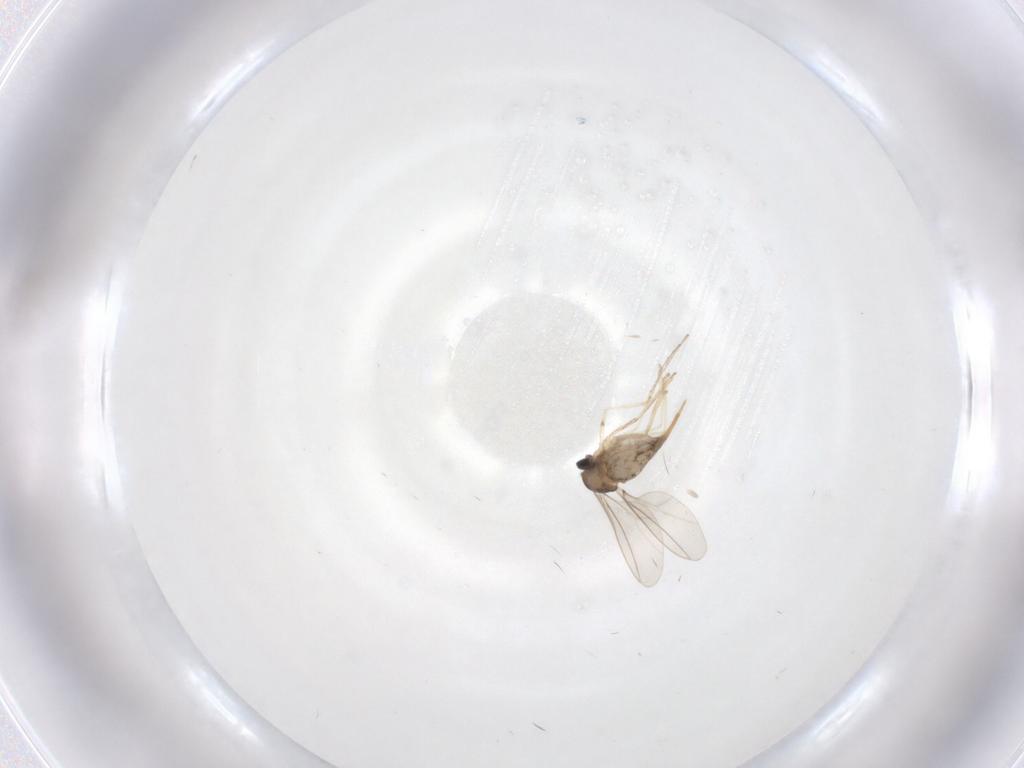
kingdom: Animalia
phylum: Arthropoda
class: Insecta
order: Diptera
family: Cecidomyiidae
